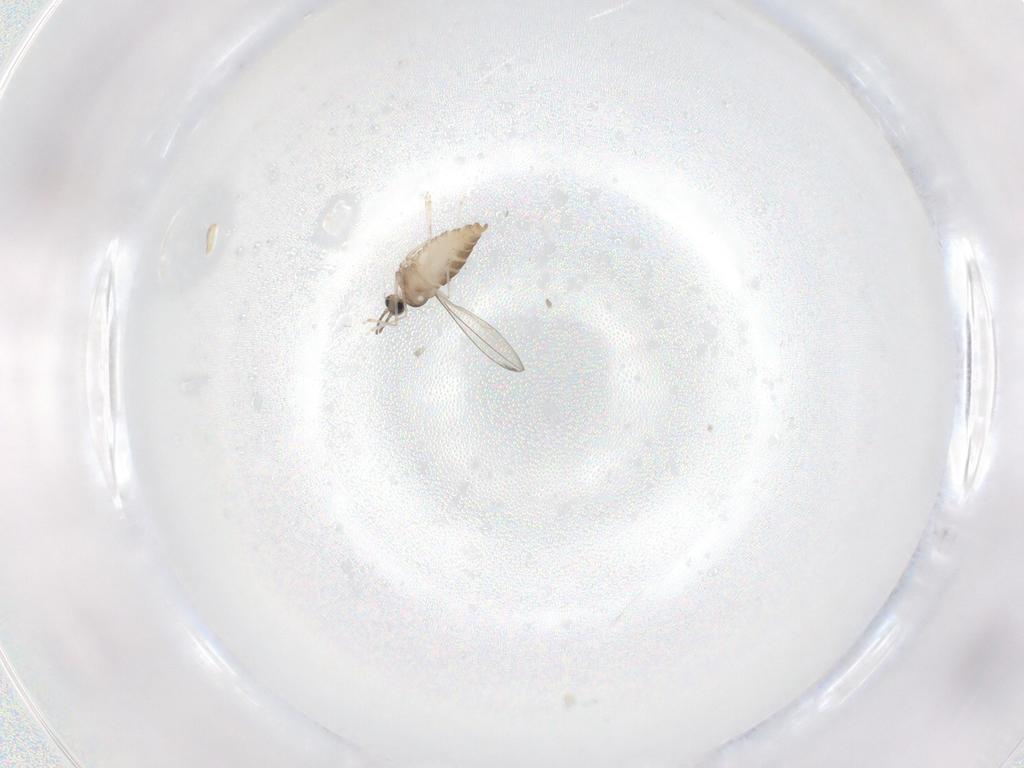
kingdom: Animalia
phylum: Arthropoda
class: Insecta
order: Diptera
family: Cecidomyiidae
